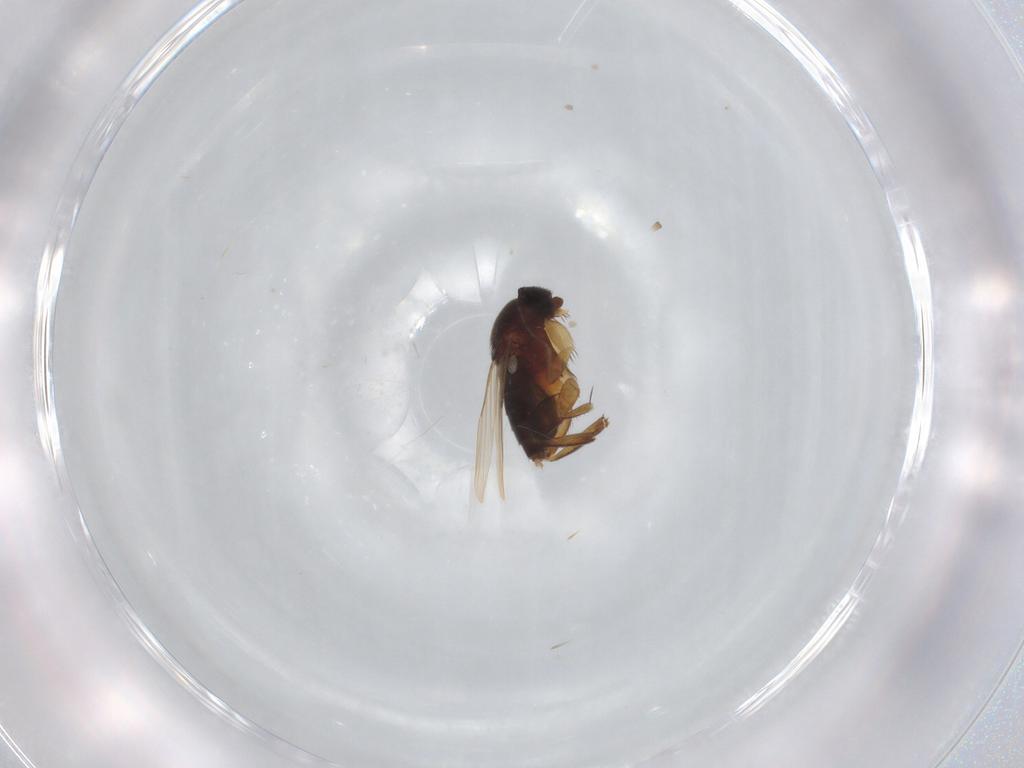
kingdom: Animalia
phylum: Arthropoda
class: Insecta
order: Diptera
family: Phoridae
